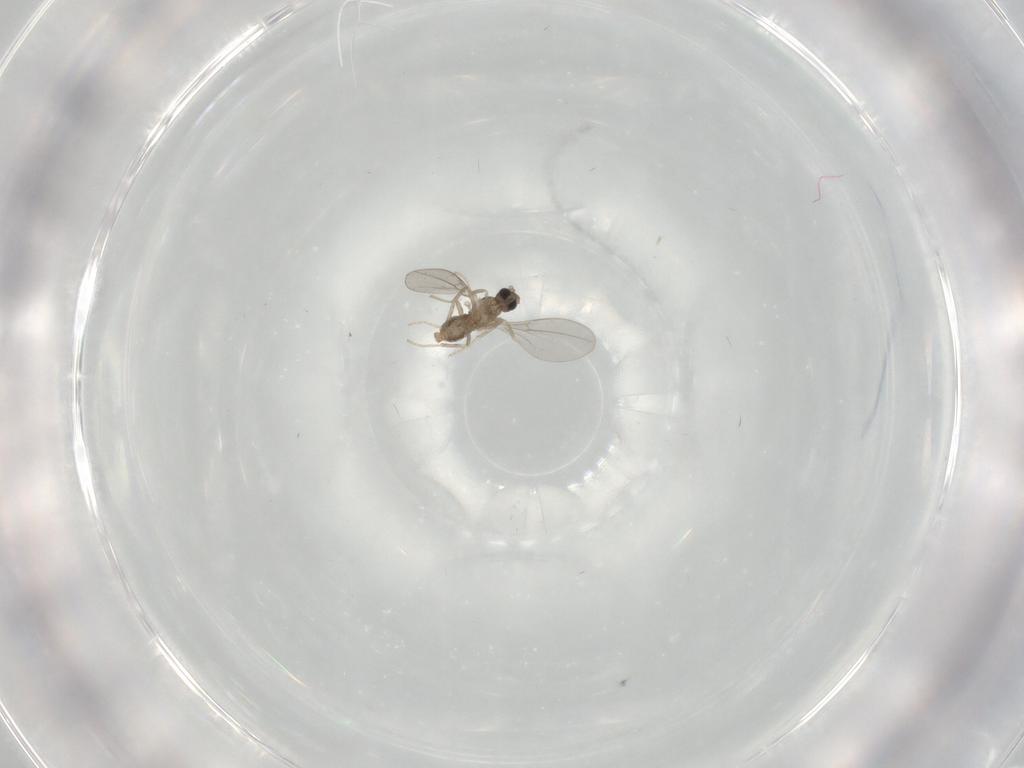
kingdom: Animalia
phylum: Arthropoda
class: Insecta
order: Diptera
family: Cecidomyiidae
